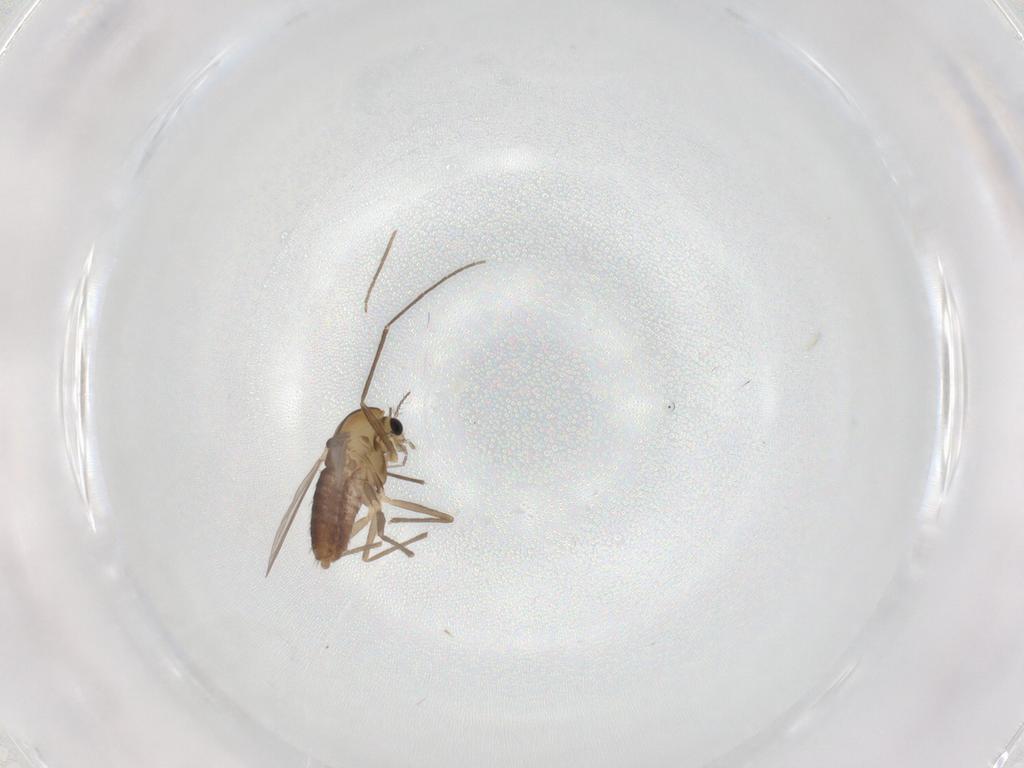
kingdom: Animalia
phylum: Arthropoda
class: Insecta
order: Diptera
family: Chironomidae
